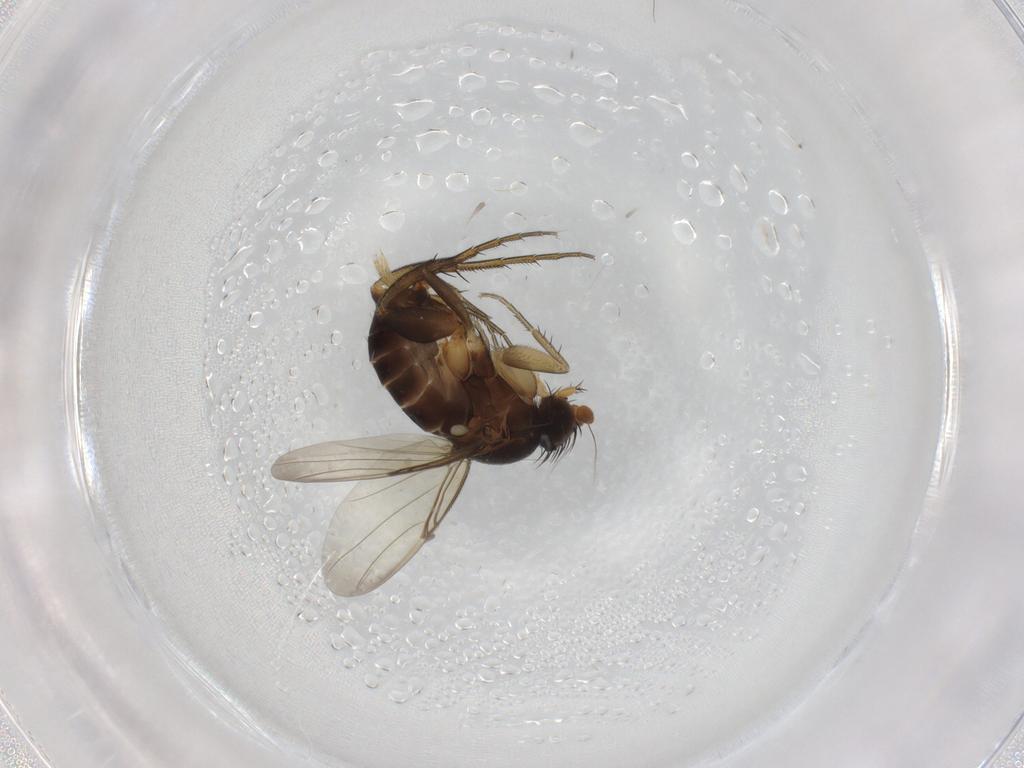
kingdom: Animalia
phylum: Arthropoda
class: Insecta
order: Diptera
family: Phoridae
